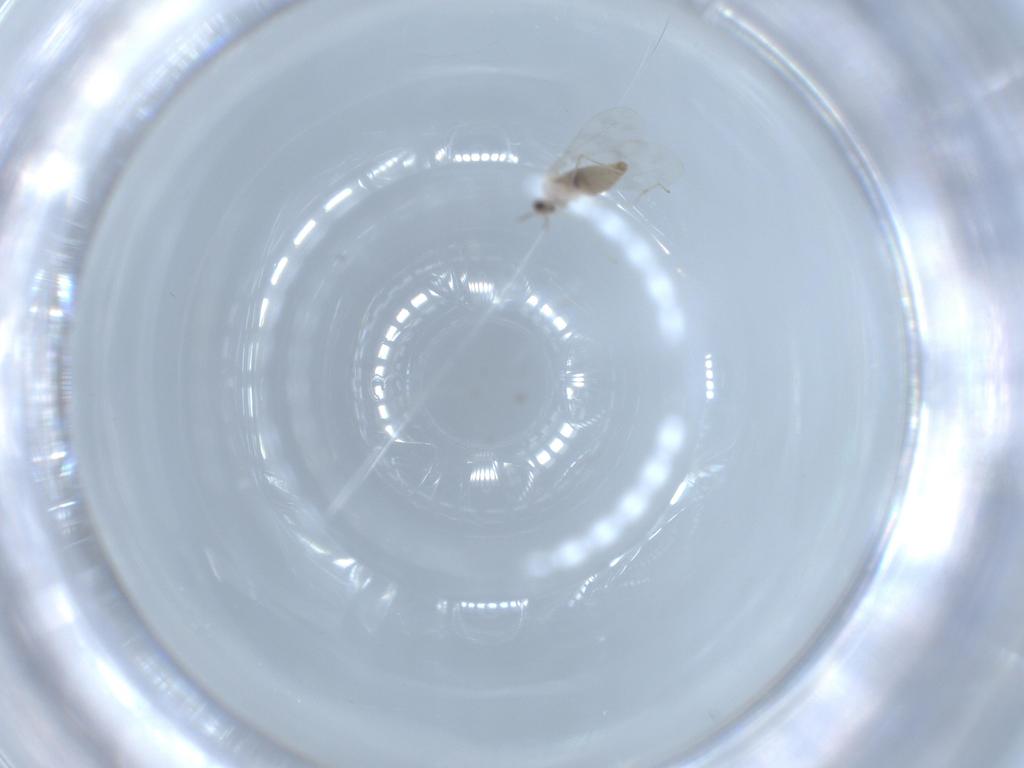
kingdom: Animalia
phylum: Arthropoda
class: Insecta
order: Diptera
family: Cecidomyiidae
